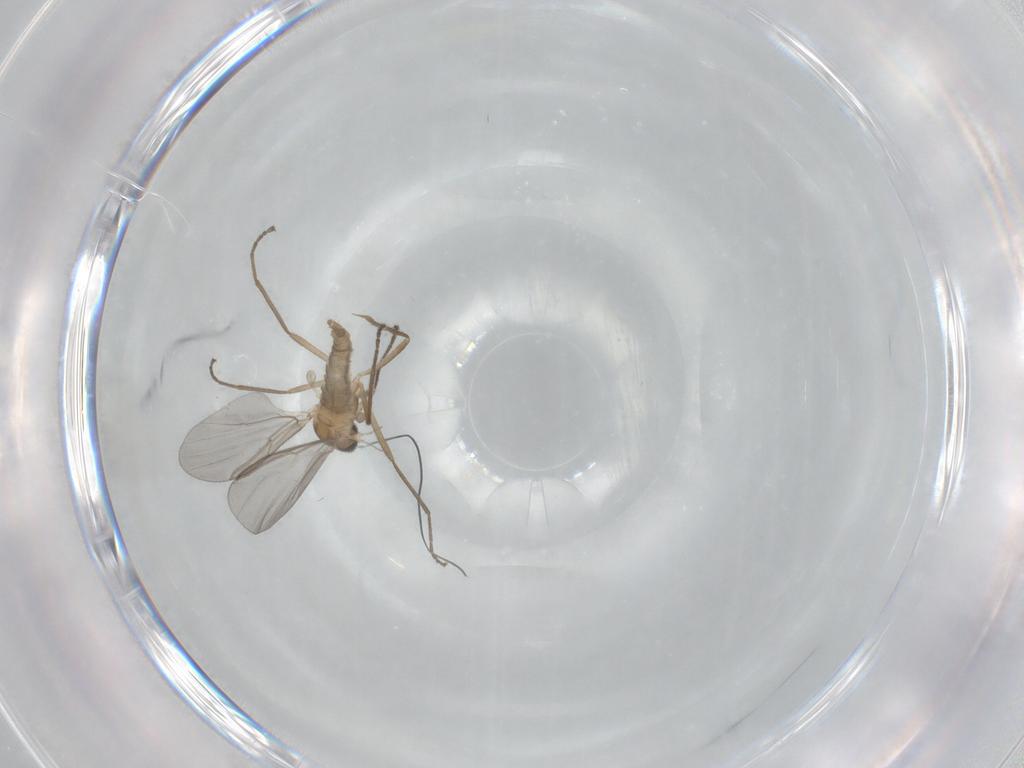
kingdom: Animalia
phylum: Arthropoda
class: Insecta
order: Diptera
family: Cecidomyiidae
